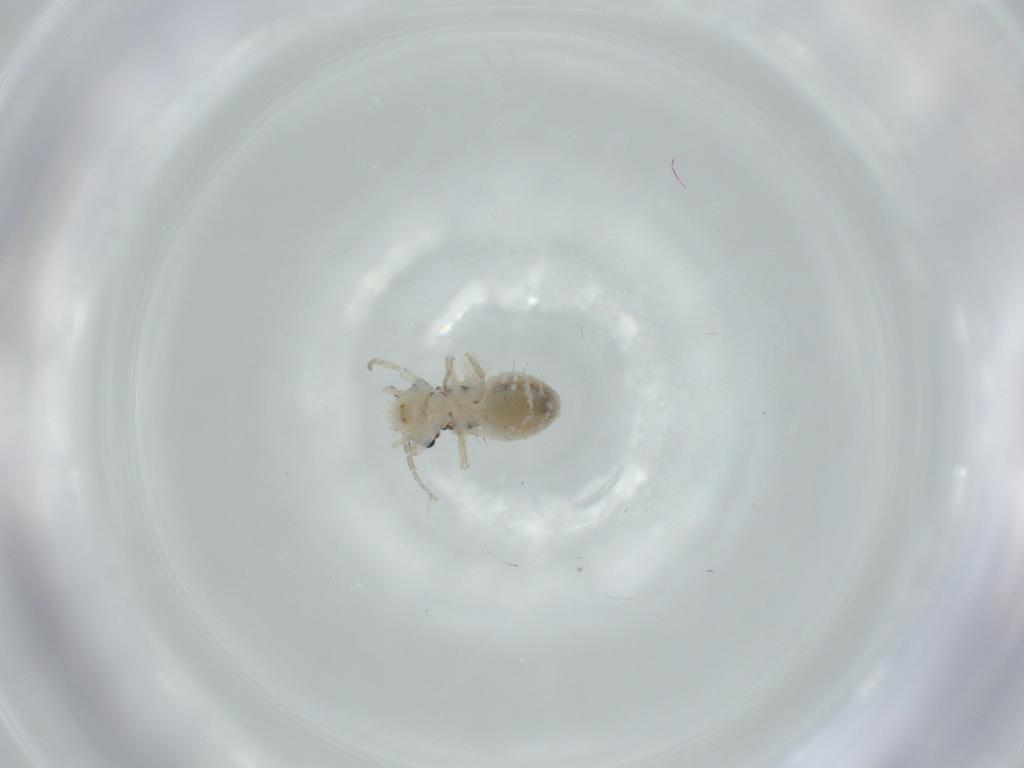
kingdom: Animalia
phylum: Arthropoda
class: Insecta
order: Psocodea
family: Pseudocaeciliidae
